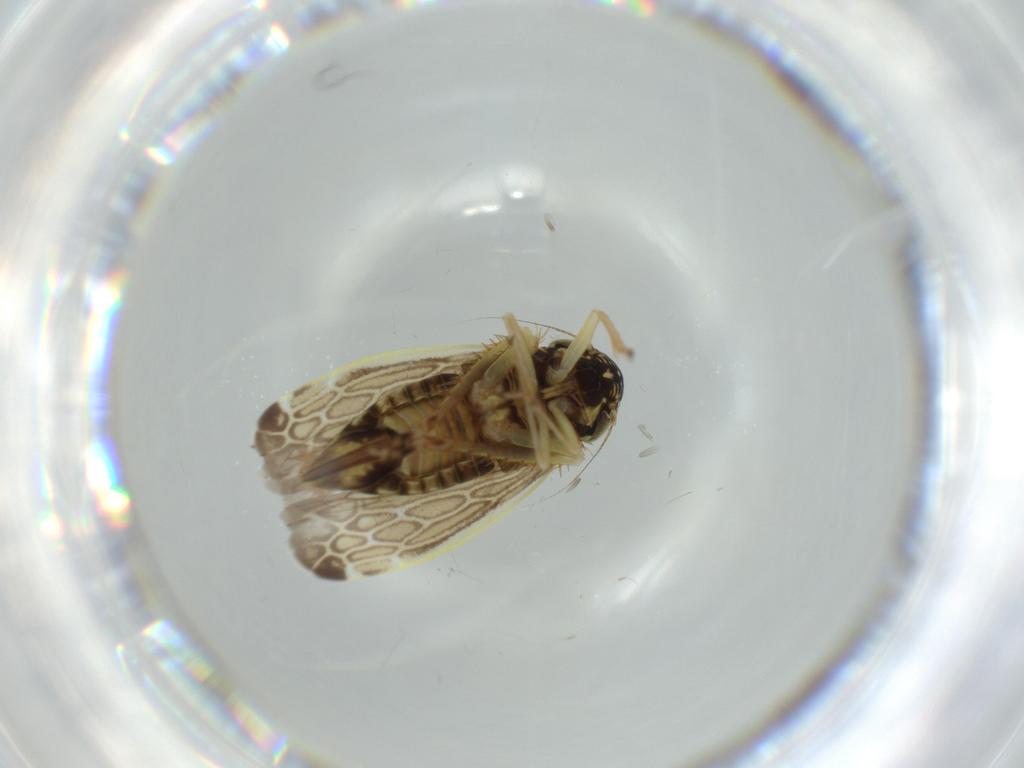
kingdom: Animalia
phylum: Arthropoda
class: Insecta
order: Hemiptera
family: Cicadellidae
